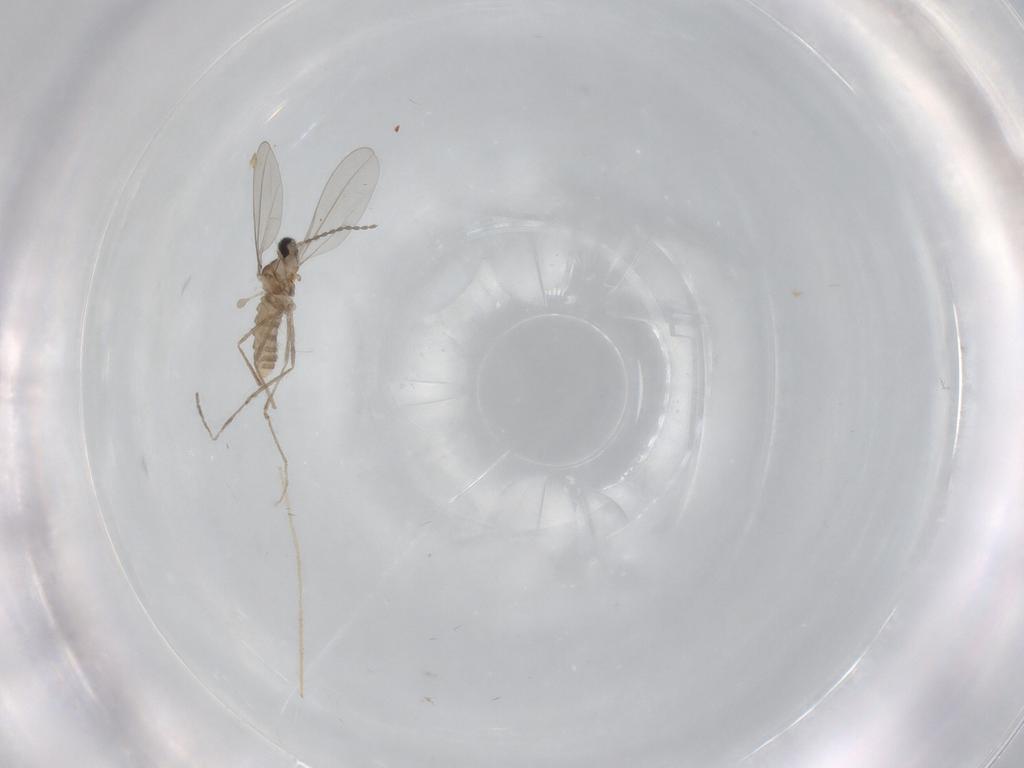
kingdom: Animalia
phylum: Arthropoda
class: Insecta
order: Diptera
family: Chironomidae
